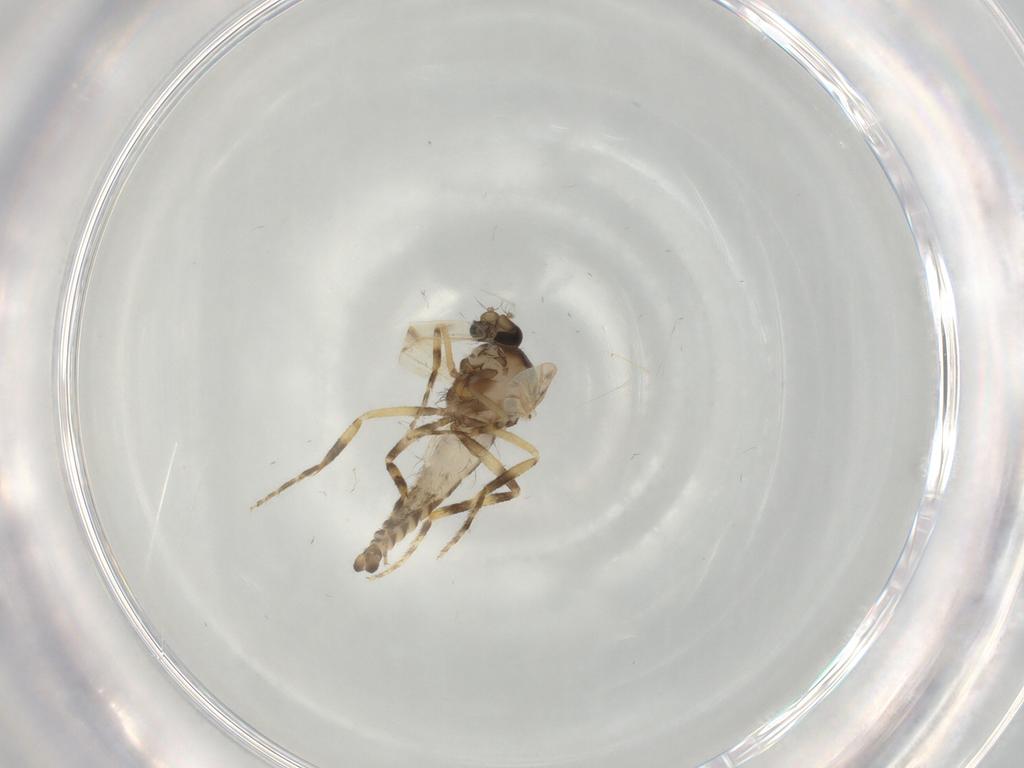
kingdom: Animalia
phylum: Arthropoda
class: Insecta
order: Diptera
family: Ceratopogonidae
